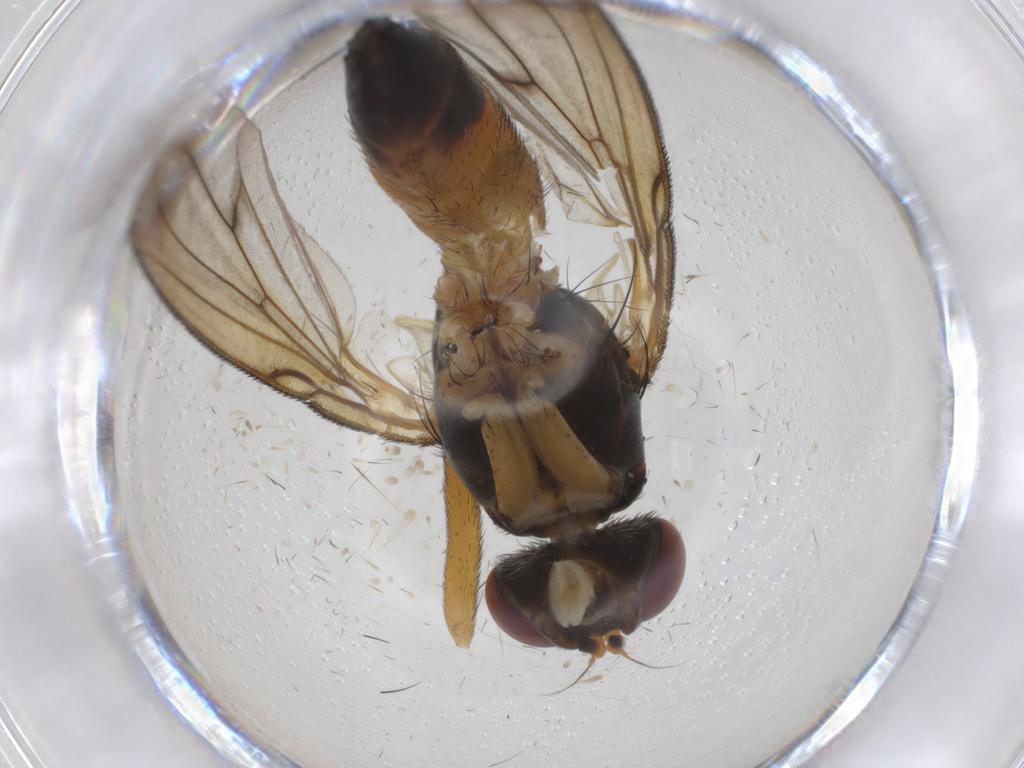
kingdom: Animalia
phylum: Arthropoda
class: Insecta
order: Diptera
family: Tachinidae
